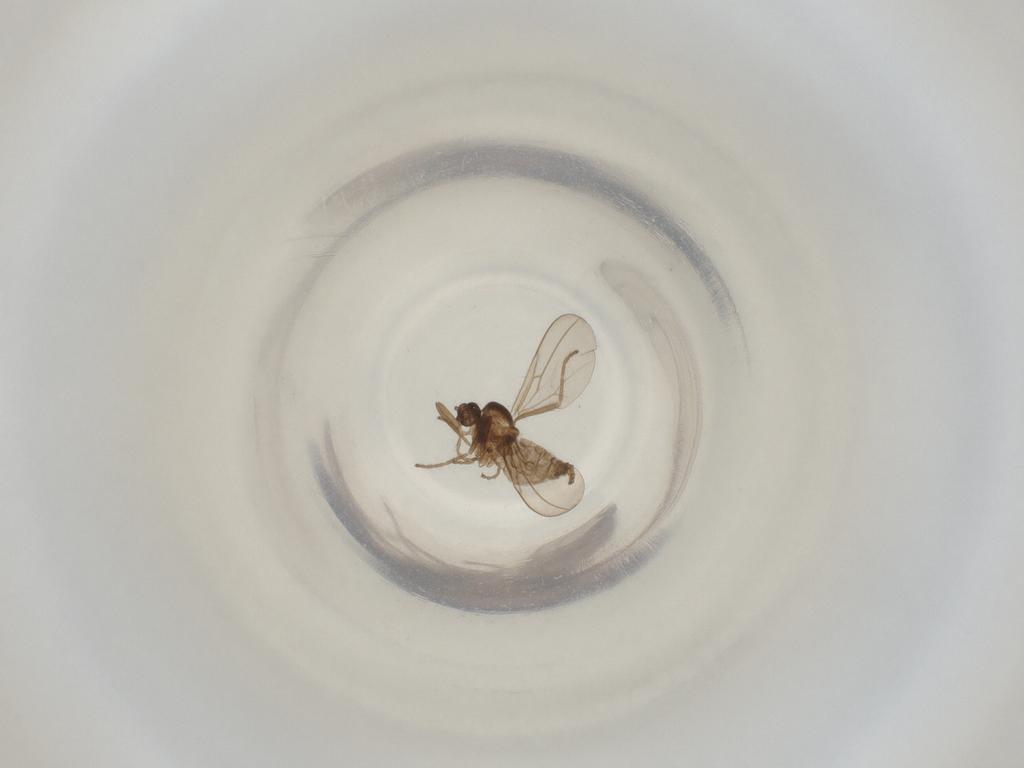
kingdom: Animalia
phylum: Arthropoda
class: Insecta
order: Diptera
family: Cecidomyiidae
